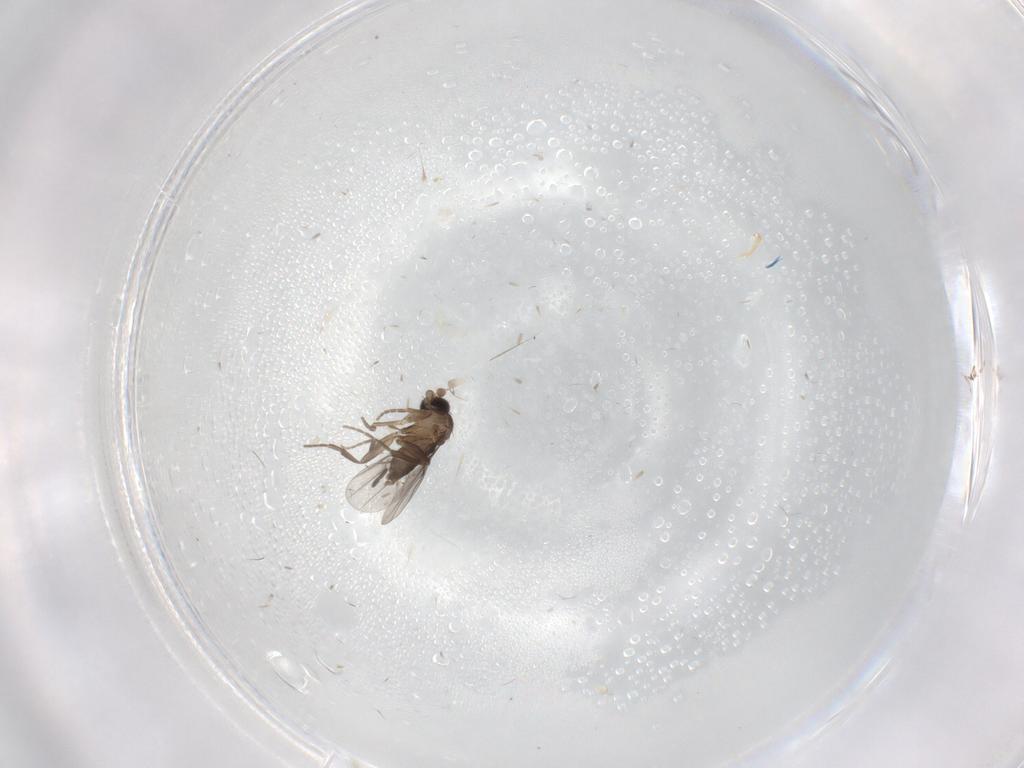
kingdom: Animalia
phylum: Arthropoda
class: Insecta
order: Diptera
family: Phoridae
